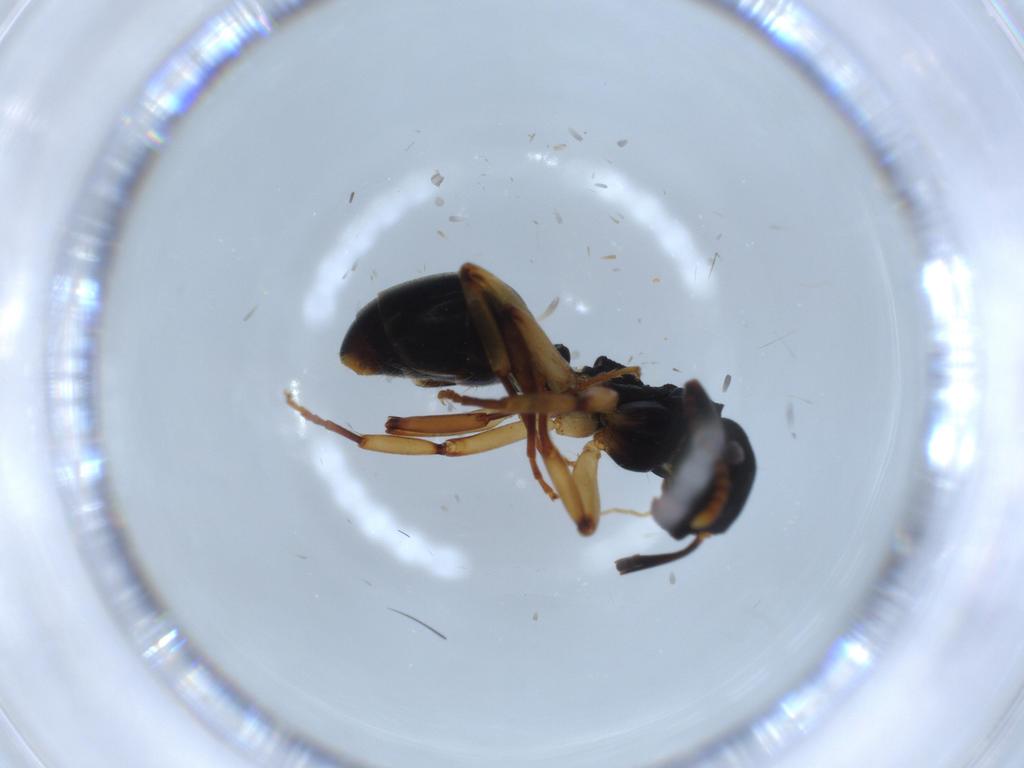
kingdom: Animalia
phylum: Arthropoda
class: Insecta
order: Hymenoptera
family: Formicidae
